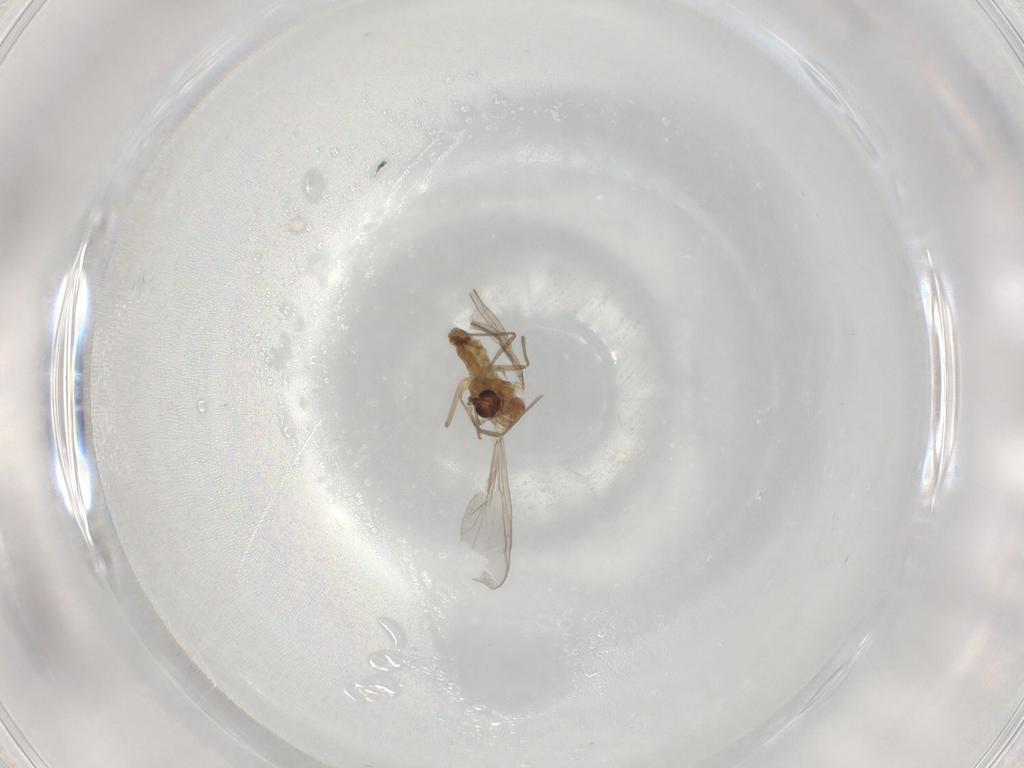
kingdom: Animalia
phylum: Arthropoda
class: Insecta
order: Diptera
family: Chironomidae
